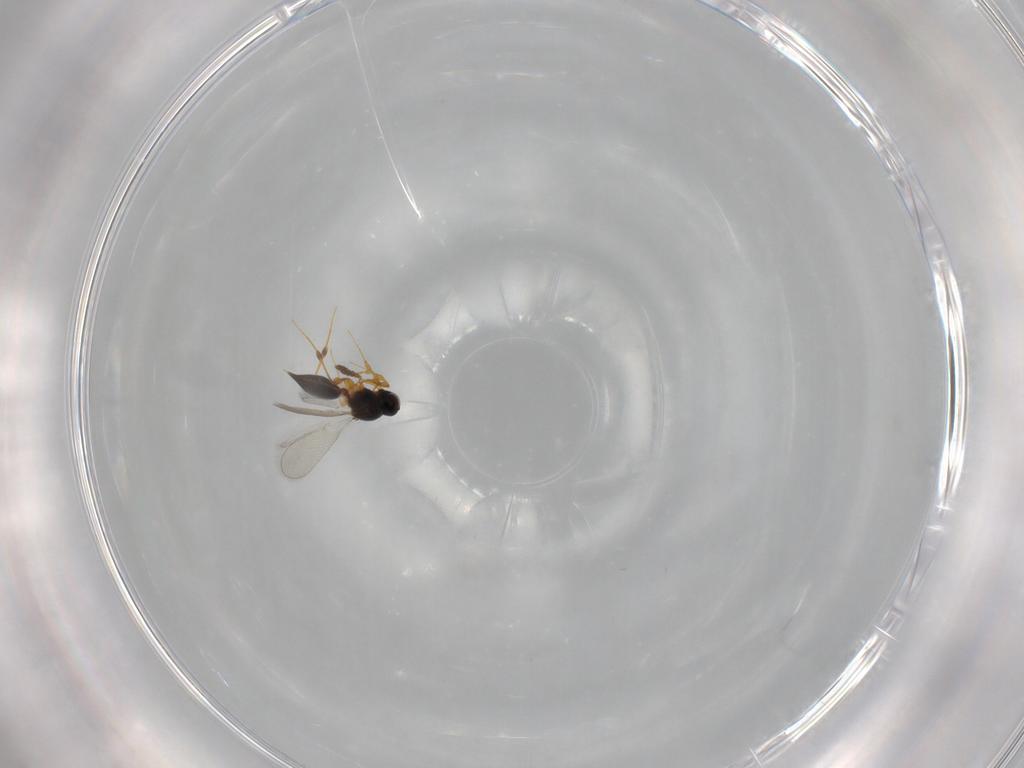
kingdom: Animalia
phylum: Arthropoda
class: Insecta
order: Hymenoptera
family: Platygastridae
